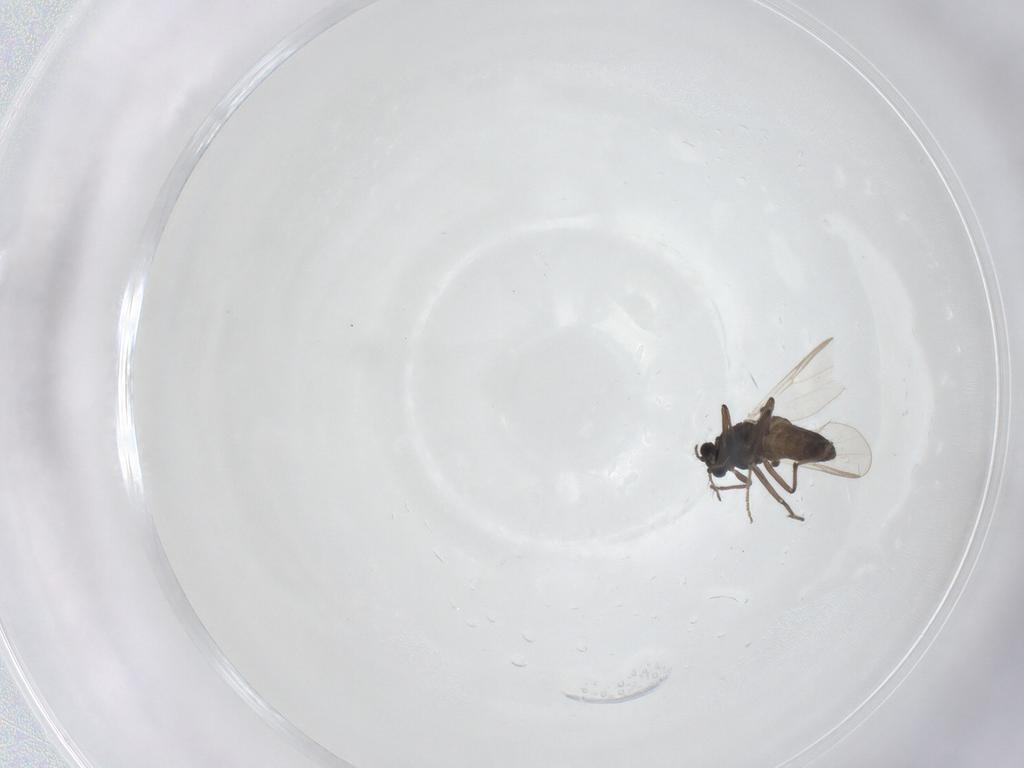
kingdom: Animalia
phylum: Arthropoda
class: Insecta
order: Diptera
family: Chironomidae
